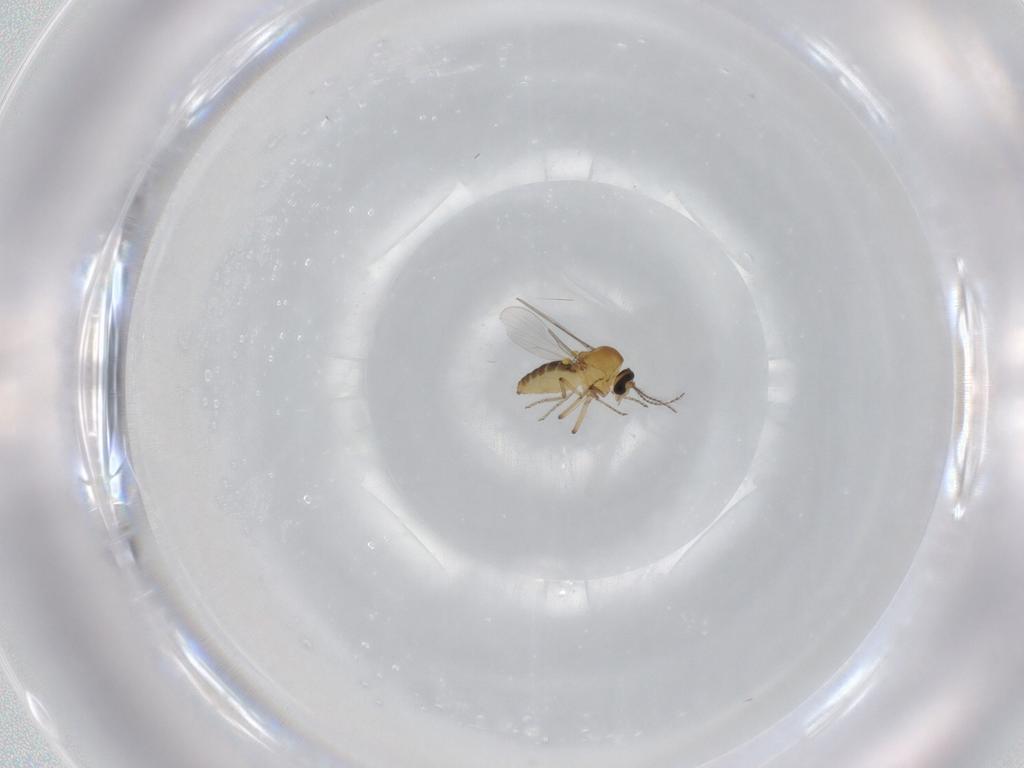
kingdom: Animalia
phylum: Arthropoda
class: Insecta
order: Diptera
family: Ceratopogonidae
